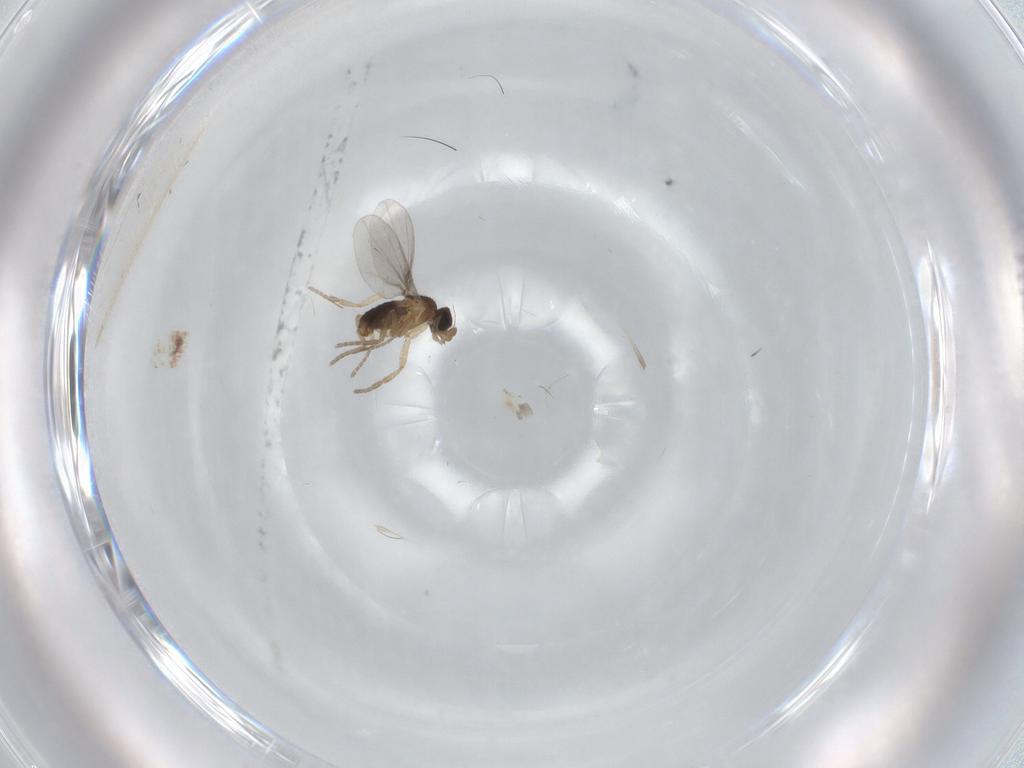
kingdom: Animalia
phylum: Arthropoda
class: Insecta
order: Diptera
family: Phoridae
